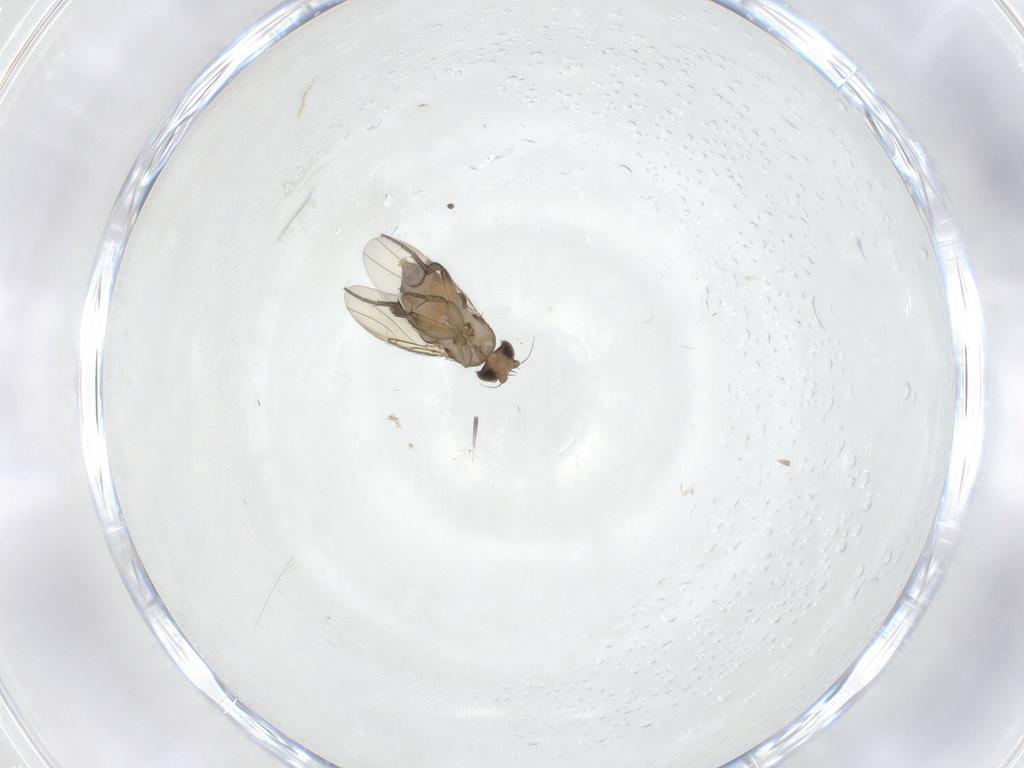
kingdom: Animalia
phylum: Arthropoda
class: Insecta
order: Diptera
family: Phoridae
